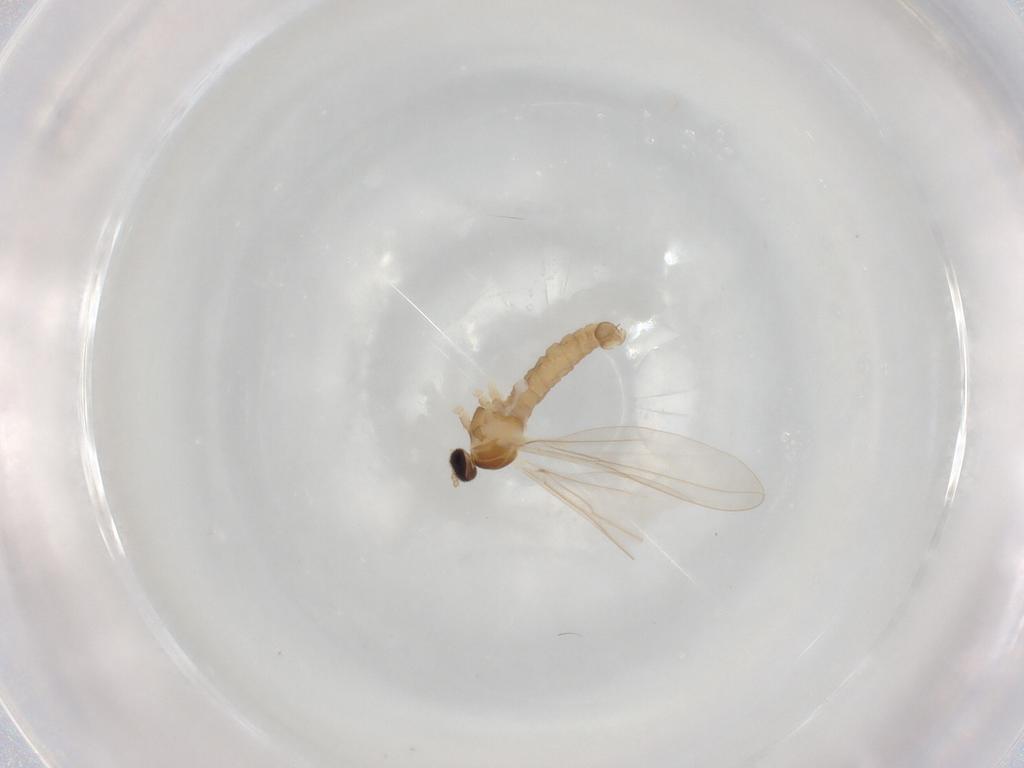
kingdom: Animalia
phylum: Arthropoda
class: Insecta
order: Diptera
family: Cecidomyiidae
